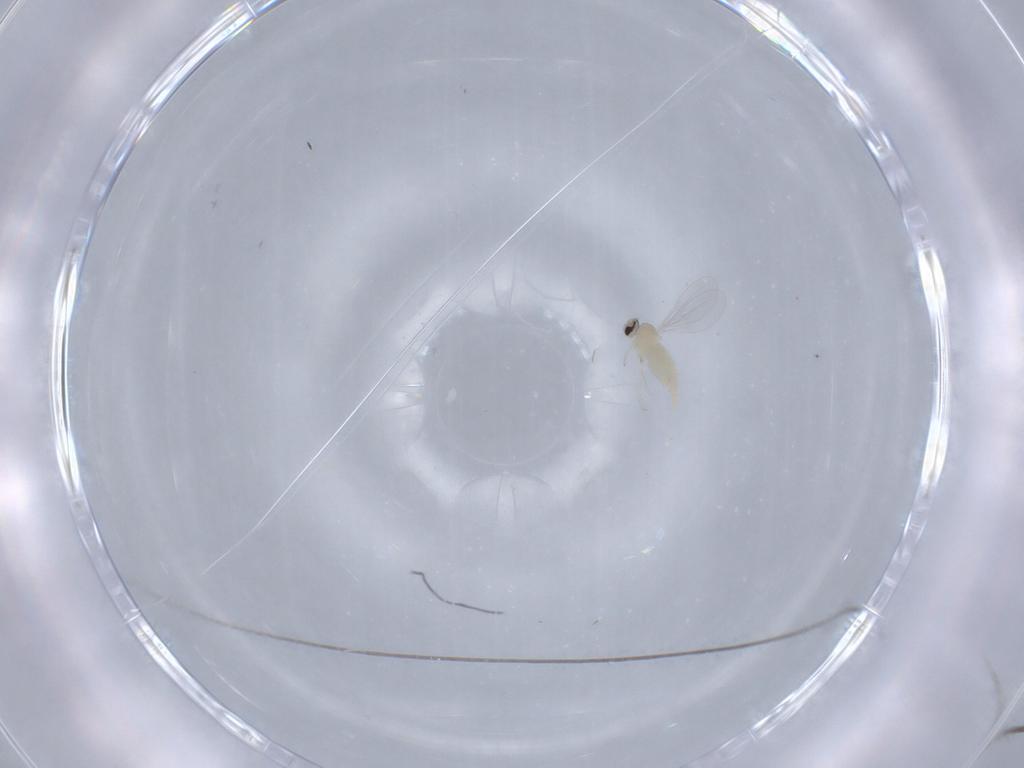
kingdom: Animalia
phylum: Arthropoda
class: Insecta
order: Diptera
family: Cecidomyiidae
